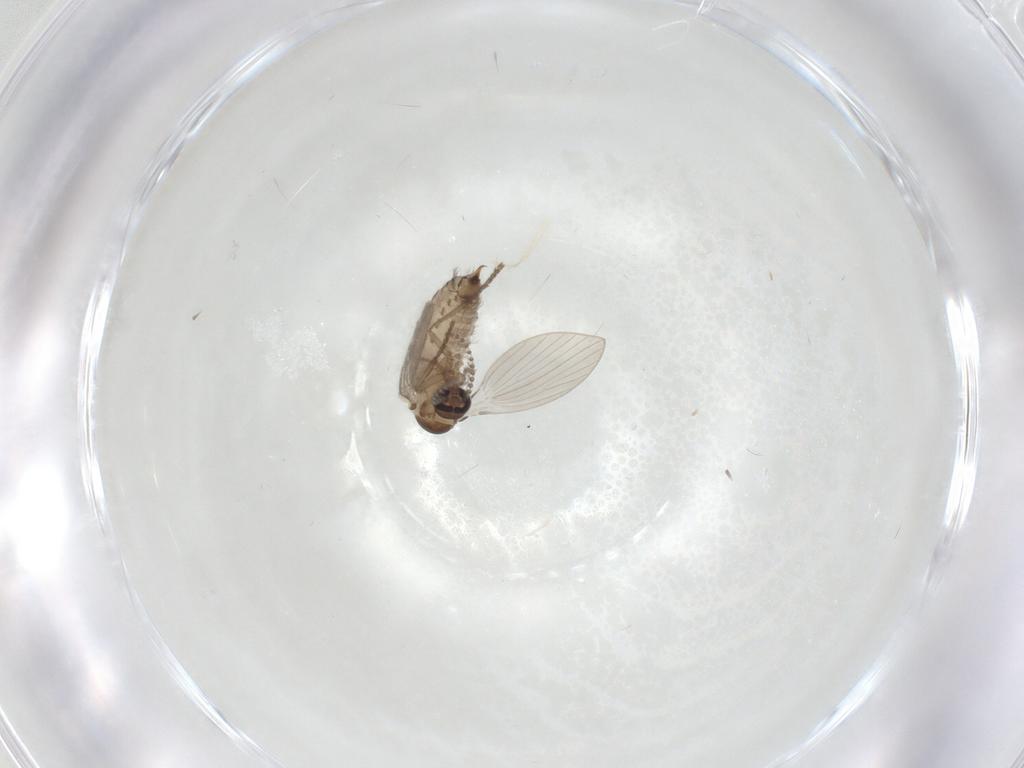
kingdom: Animalia
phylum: Arthropoda
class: Insecta
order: Diptera
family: Psychodidae
